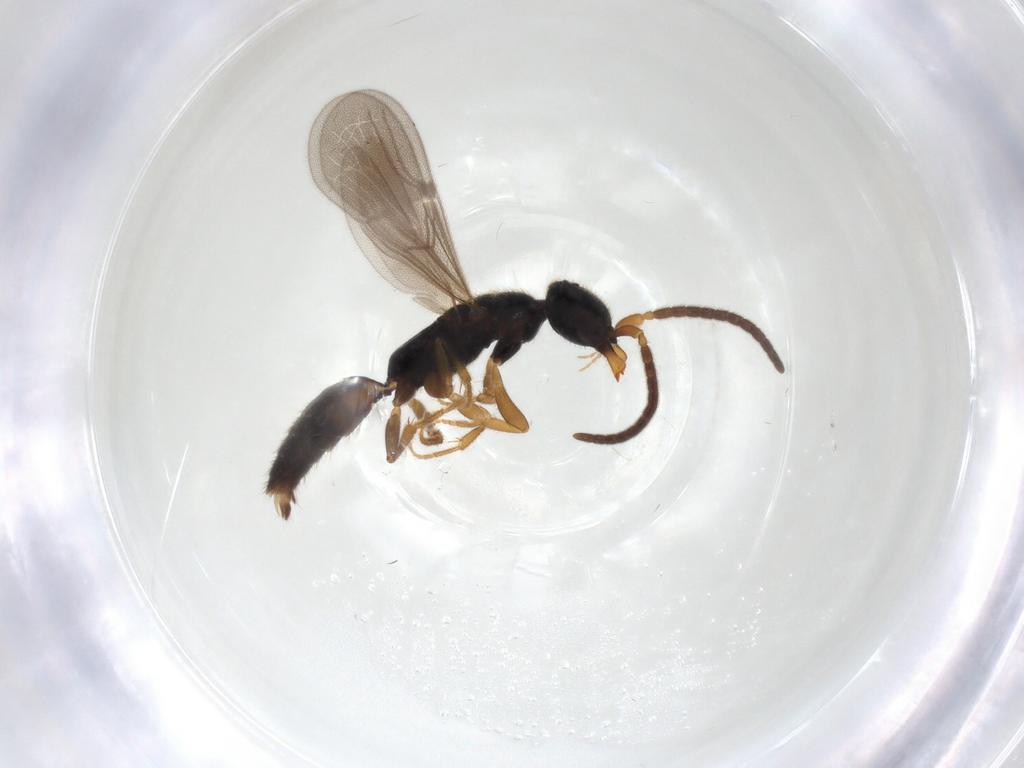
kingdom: Animalia
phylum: Arthropoda
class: Insecta
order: Hymenoptera
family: Bethylidae
